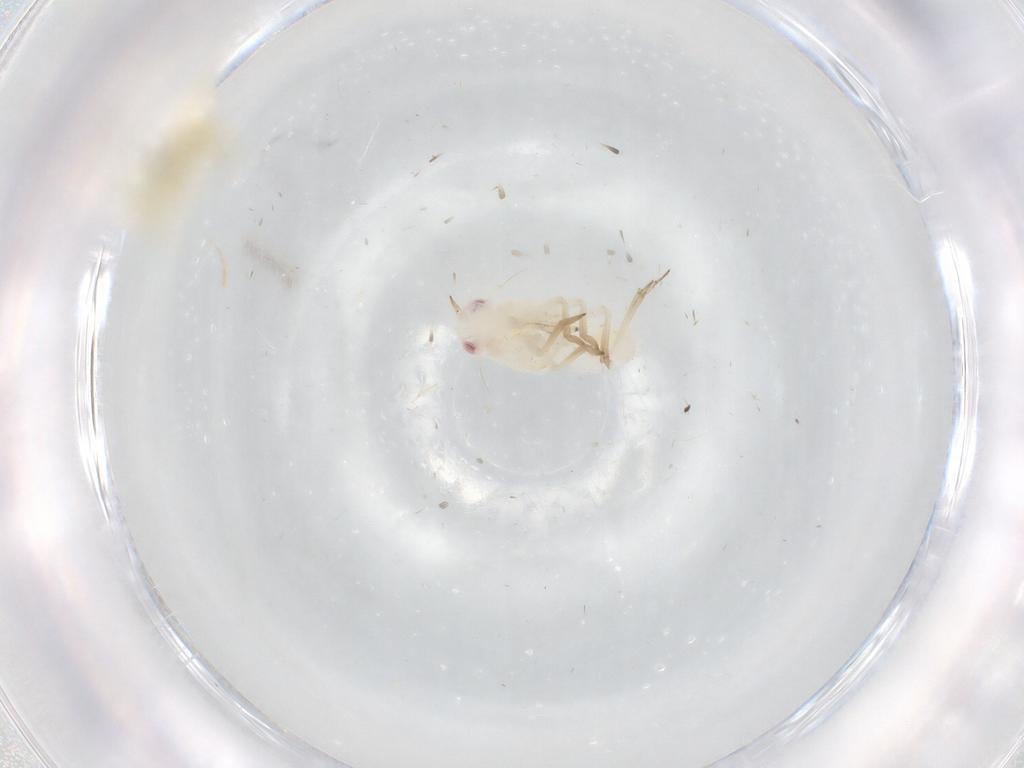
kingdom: Animalia
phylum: Arthropoda
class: Insecta
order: Hemiptera
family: Tropiduchidae
